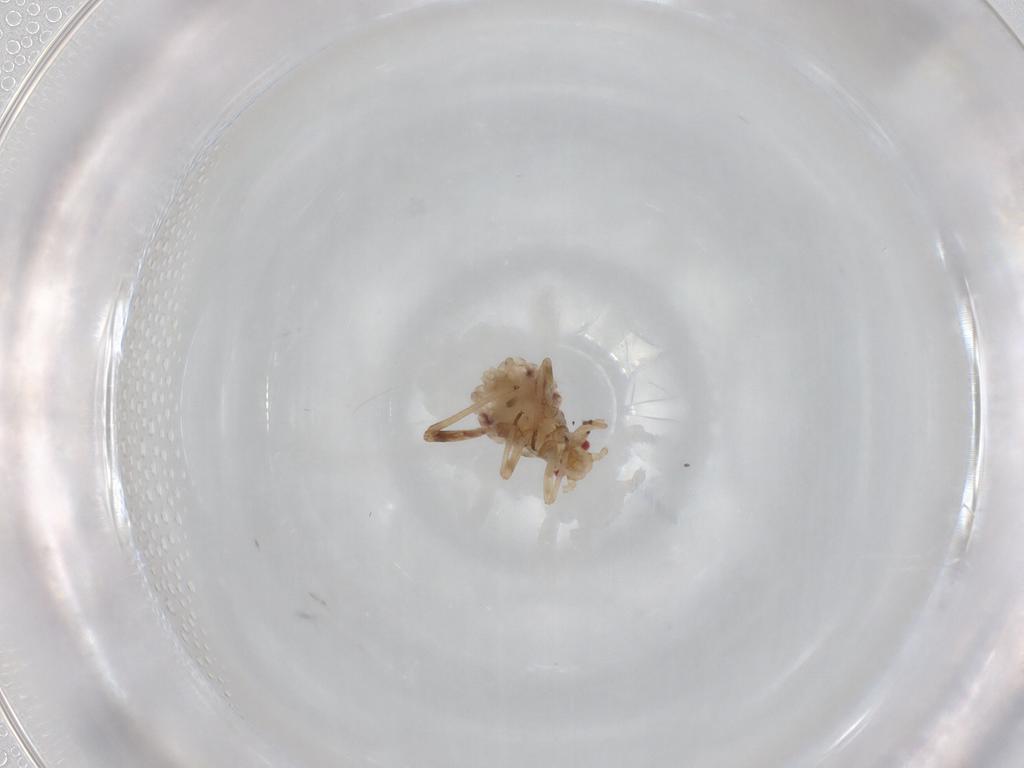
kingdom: Animalia
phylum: Arthropoda
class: Insecta
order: Hemiptera
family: Aphididae
